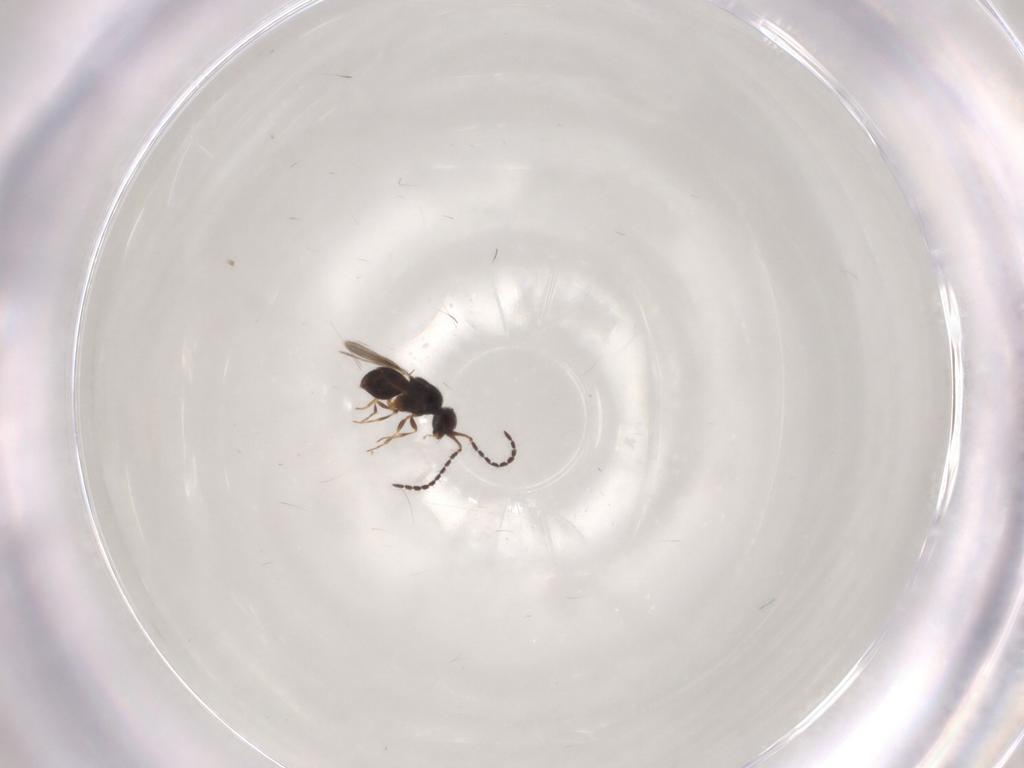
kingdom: Animalia
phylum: Arthropoda
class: Insecta
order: Hymenoptera
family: Ceraphronidae
